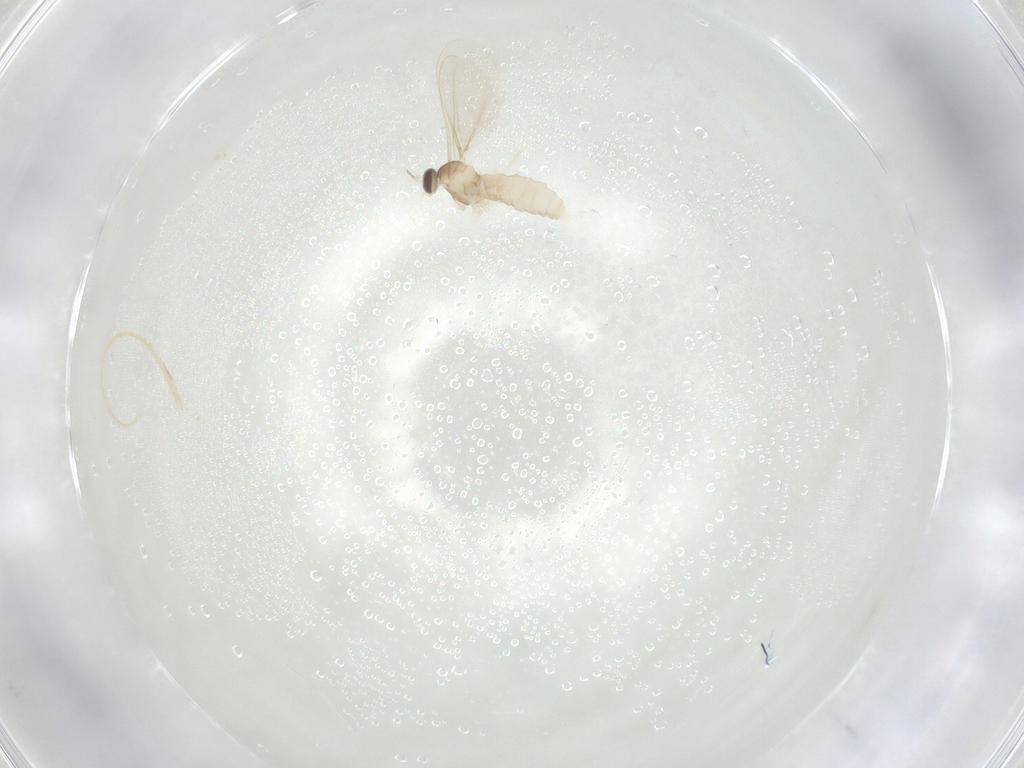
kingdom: Animalia
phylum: Arthropoda
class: Insecta
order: Diptera
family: Cecidomyiidae
